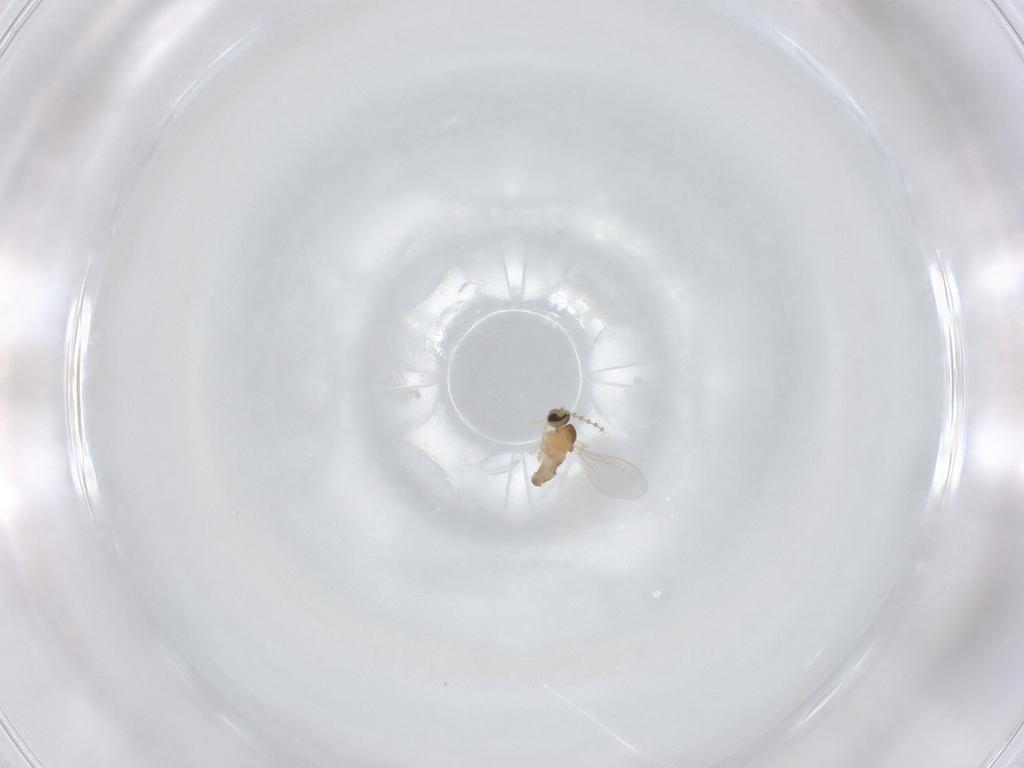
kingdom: Animalia
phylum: Arthropoda
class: Insecta
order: Diptera
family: Cecidomyiidae
